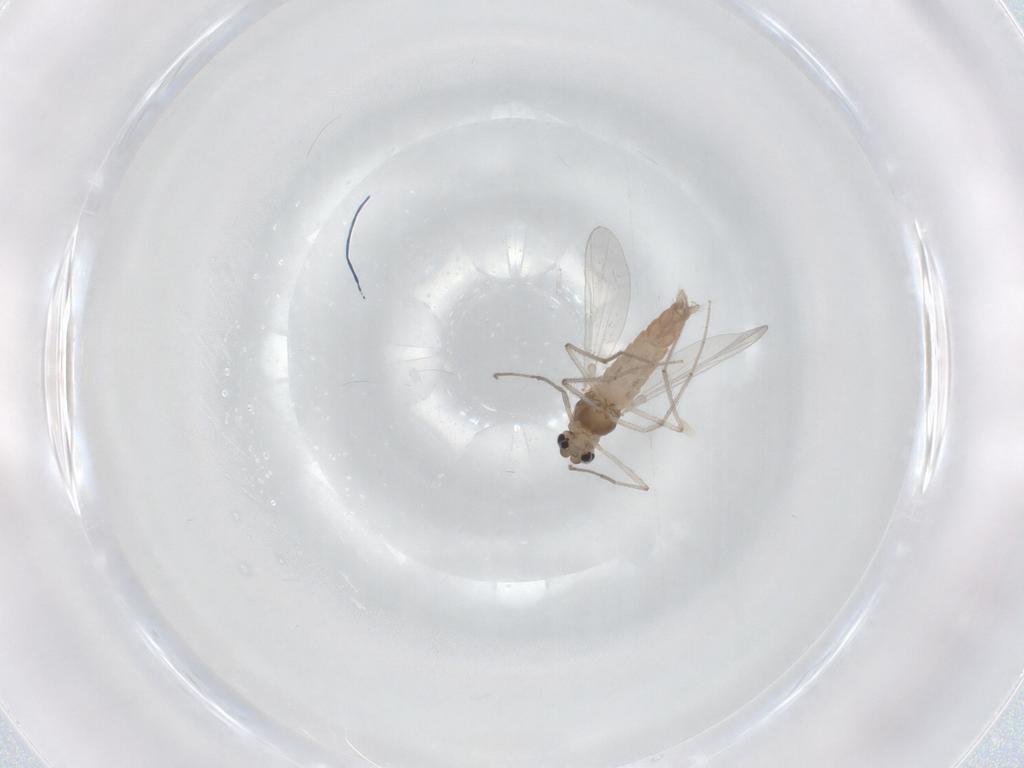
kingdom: Animalia
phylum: Arthropoda
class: Insecta
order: Diptera
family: Chironomidae
